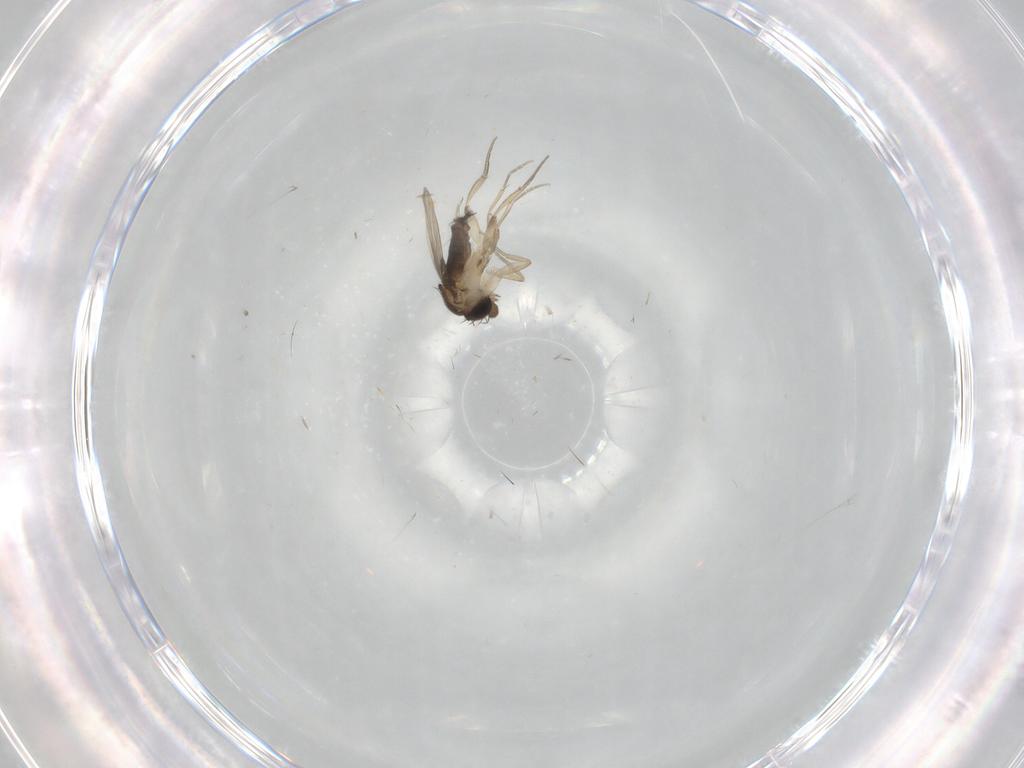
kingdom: Animalia
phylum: Arthropoda
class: Insecta
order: Diptera
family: Phoridae
